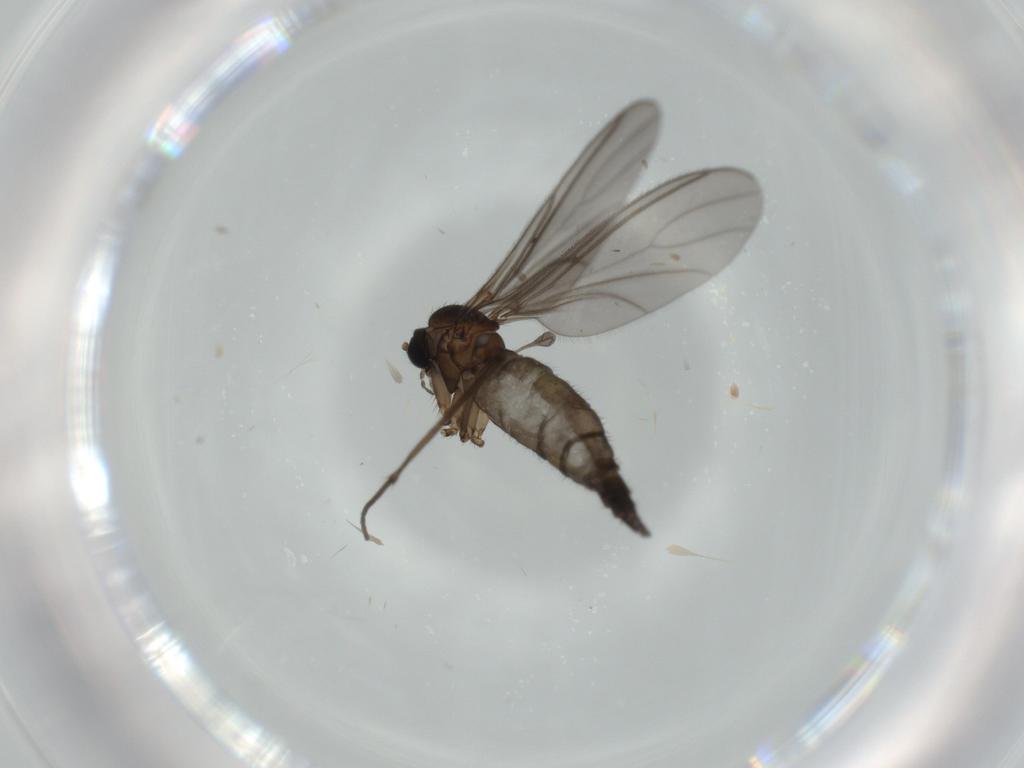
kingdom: Animalia
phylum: Arthropoda
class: Insecta
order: Diptera
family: Sciaridae
